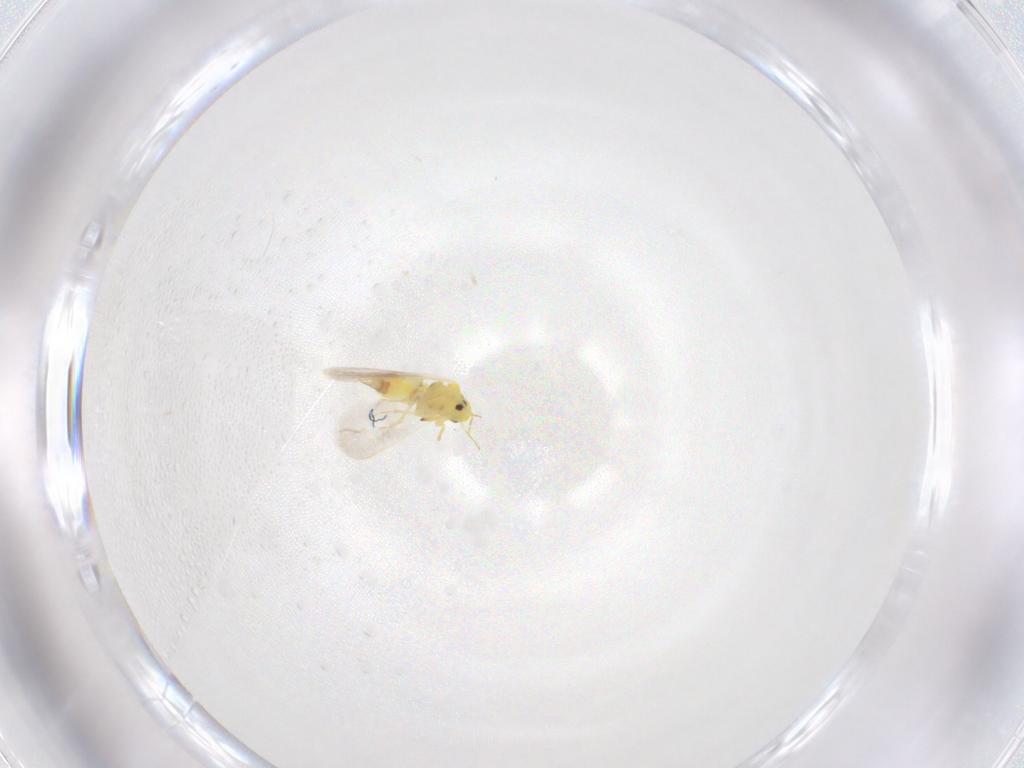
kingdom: Animalia
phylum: Arthropoda
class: Insecta
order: Hemiptera
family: Aleyrodidae
